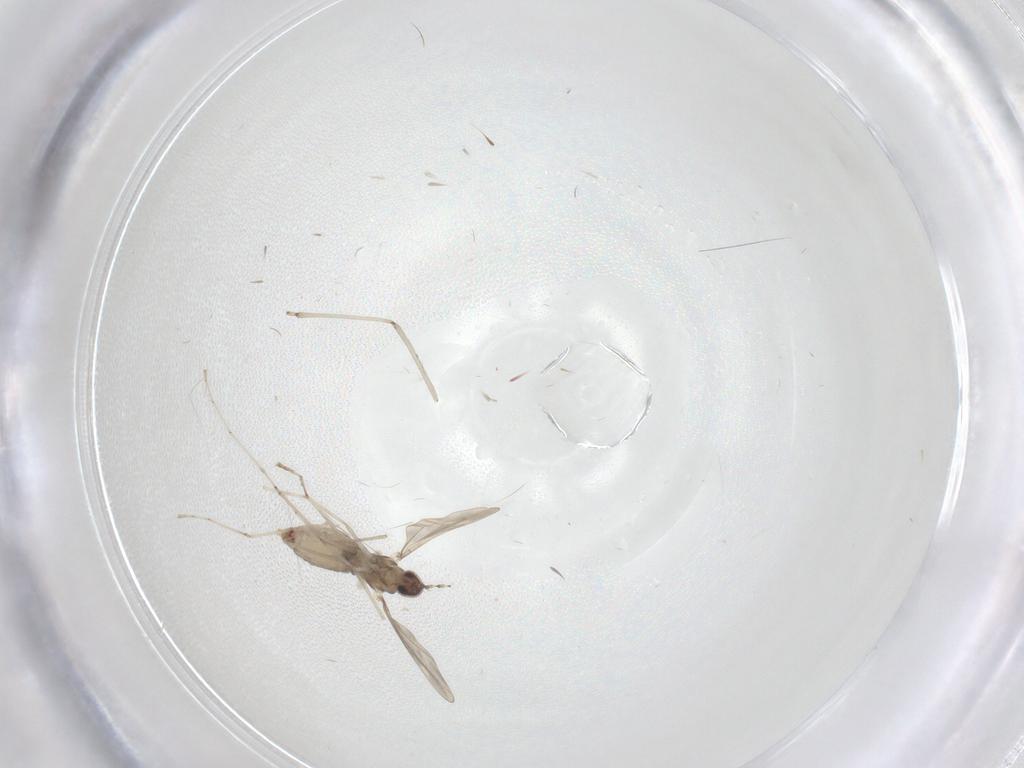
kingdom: Animalia
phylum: Arthropoda
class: Insecta
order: Diptera
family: Cecidomyiidae
